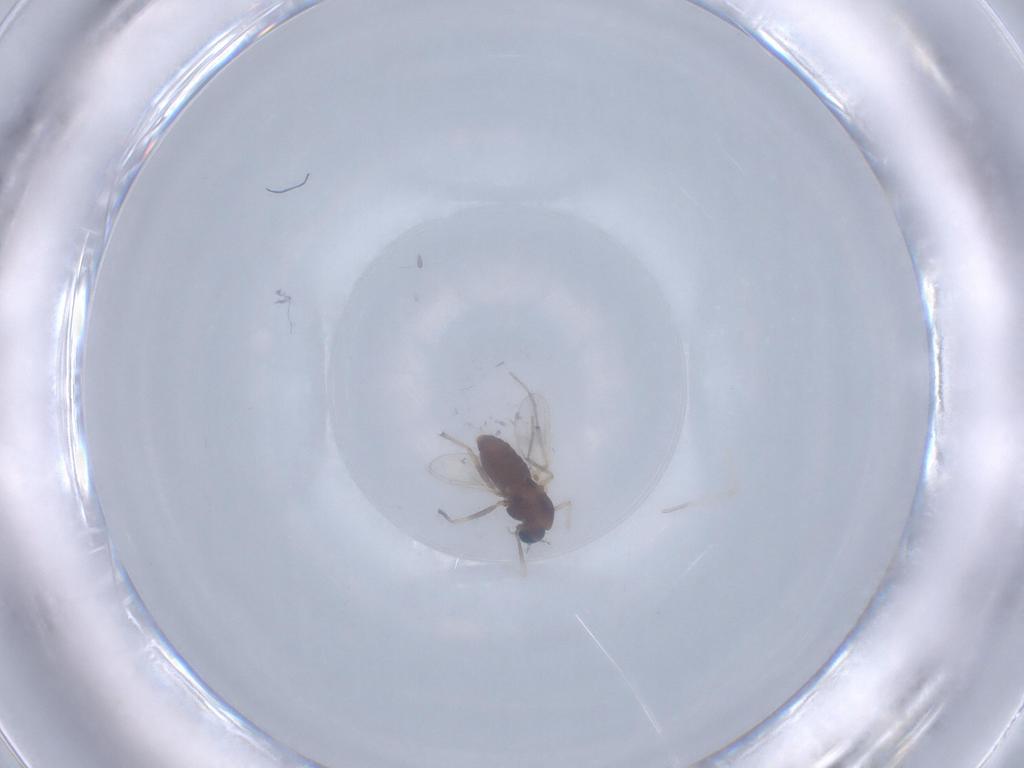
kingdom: Animalia
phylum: Arthropoda
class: Insecta
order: Diptera
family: Chironomidae
